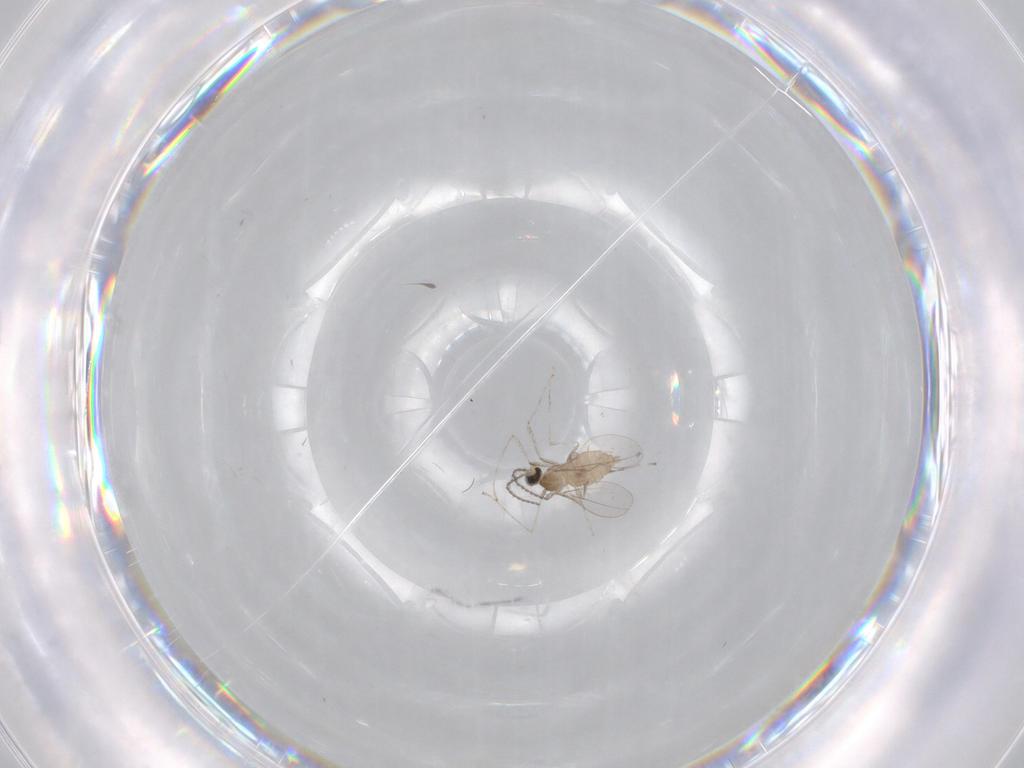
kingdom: Animalia
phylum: Arthropoda
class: Insecta
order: Diptera
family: Cecidomyiidae
